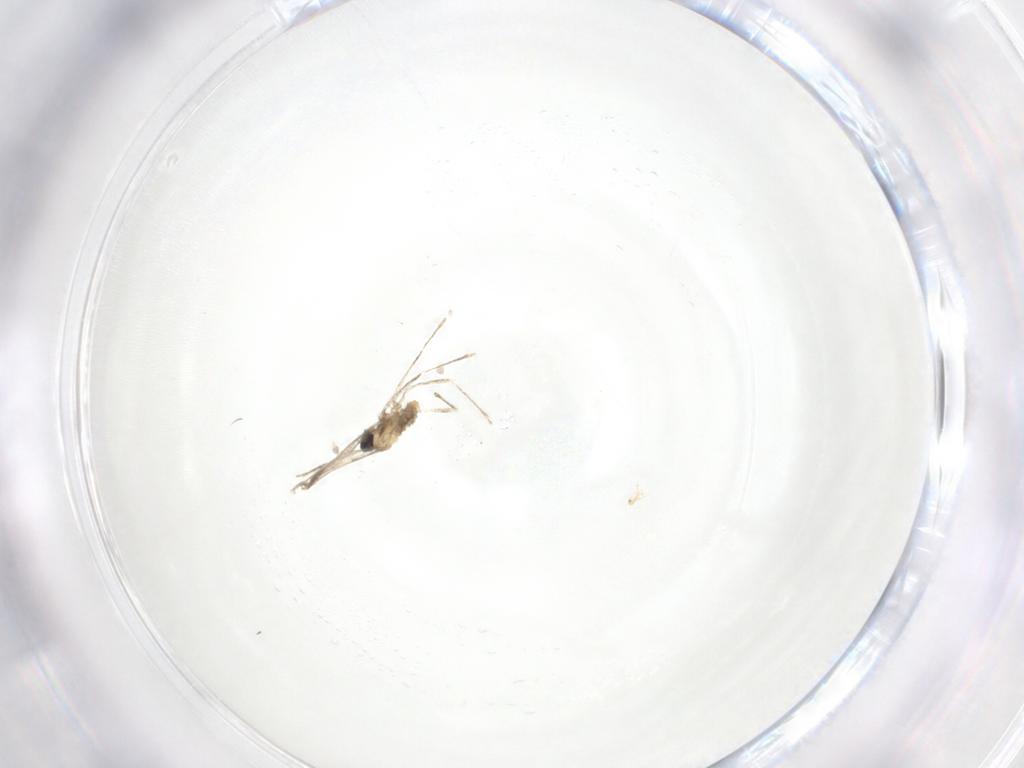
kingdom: Animalia
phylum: Arthropoda
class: Insecta
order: Diptera
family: Cecidomyiidae
